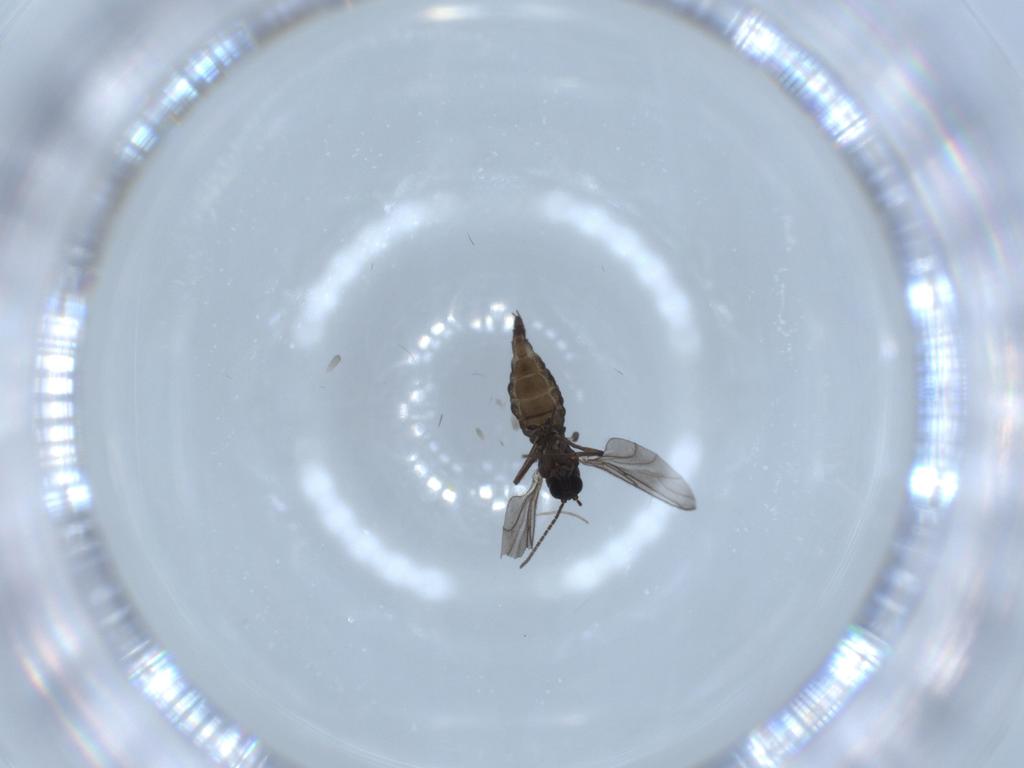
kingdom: Animalia
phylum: Arthropoda
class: Insecta
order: Diptera
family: Sciaridae
